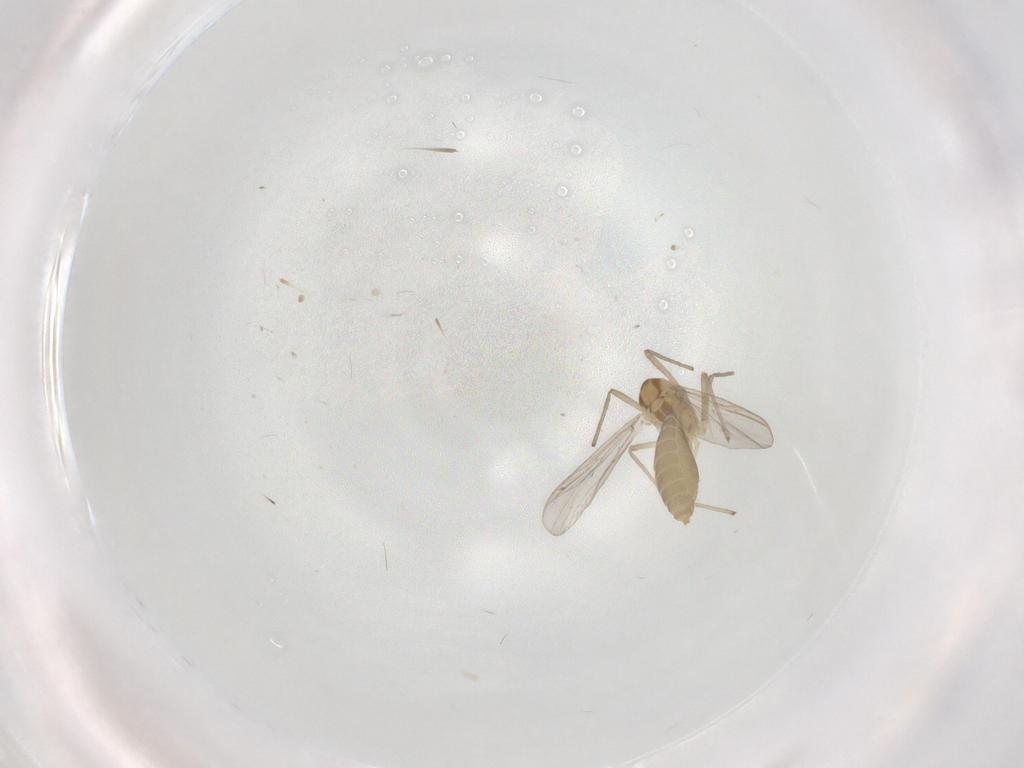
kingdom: Animalia
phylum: Arthropoda
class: Insecta
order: Diptera
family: Chironomidae
